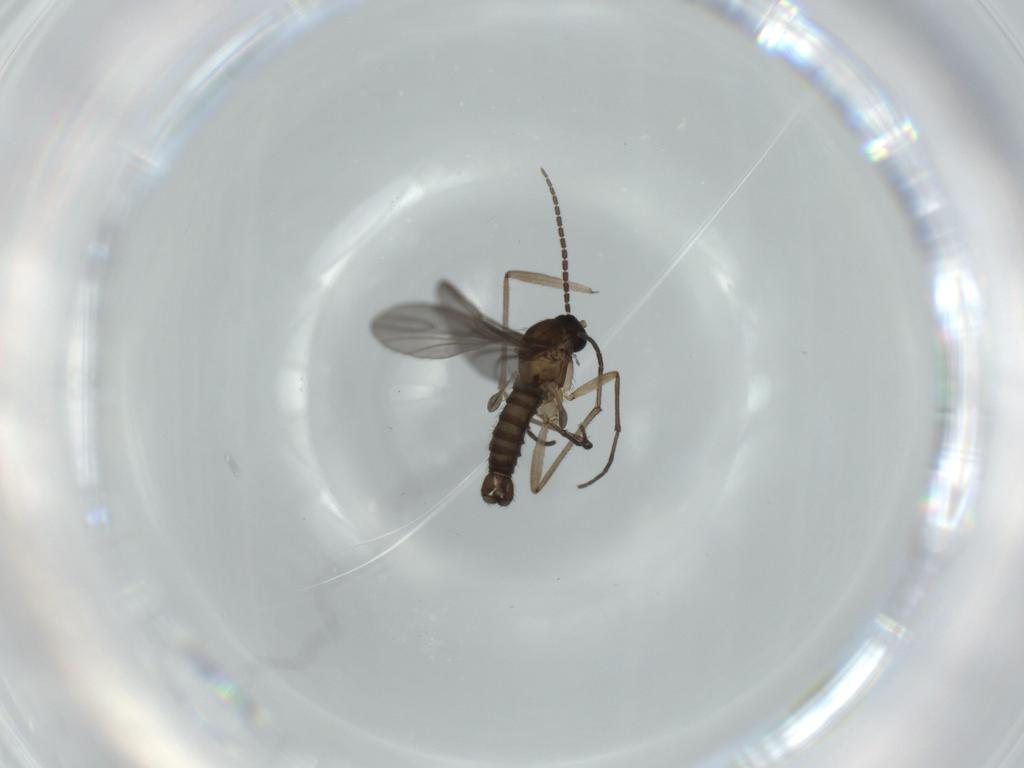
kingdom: Animalia
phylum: Arthropoda
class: Insecta
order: Diptera
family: Sciaridae
